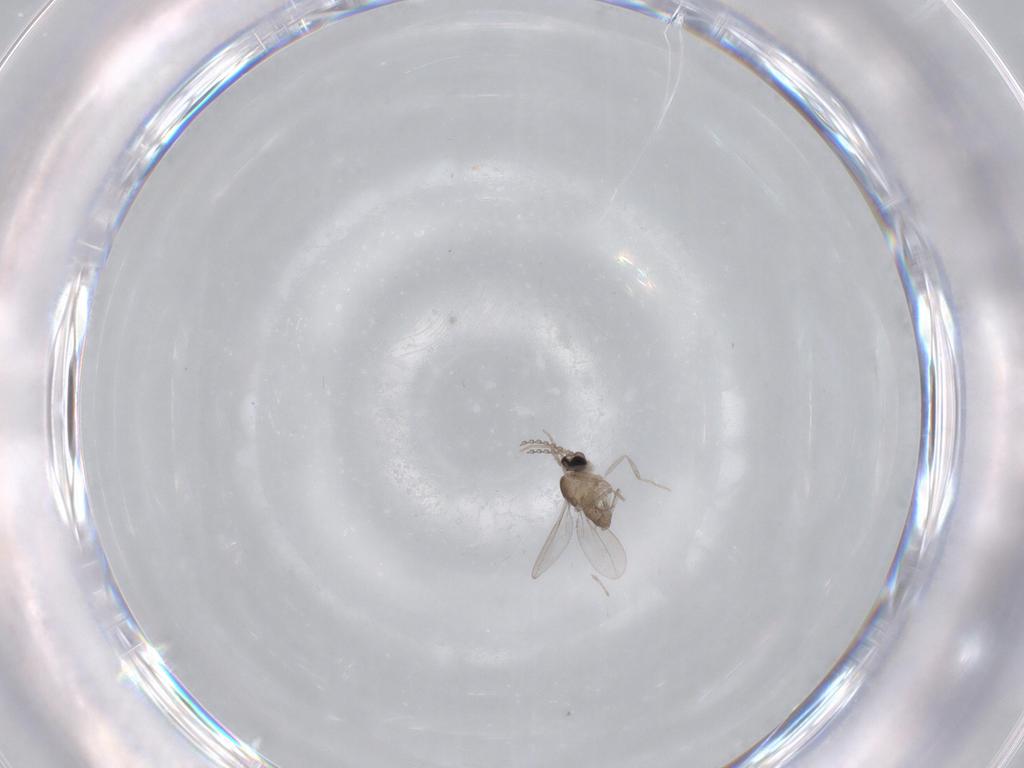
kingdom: Animalia
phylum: Arthropoda
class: Insecta
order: Diptera
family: Cecidomyiidae
